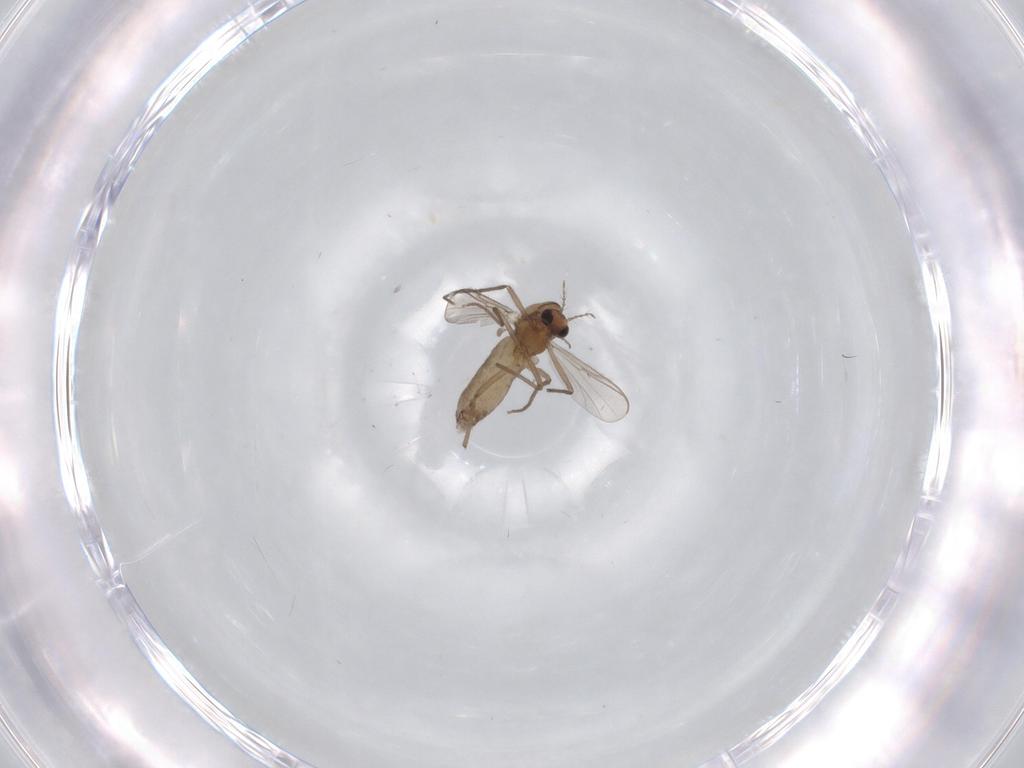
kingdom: Animalia
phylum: Arthropoda
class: Insecta
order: Diptera
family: Chironomidae
